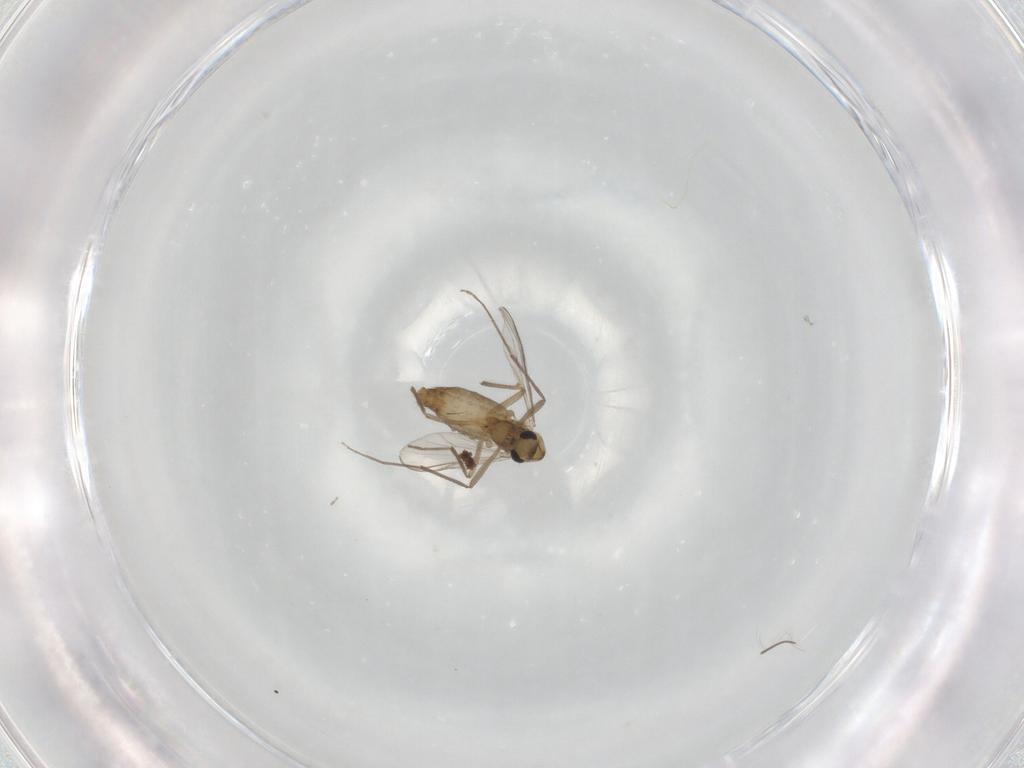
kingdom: Animalia
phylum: Arthropoda
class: Insecta
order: Diptera
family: Chironomidae
